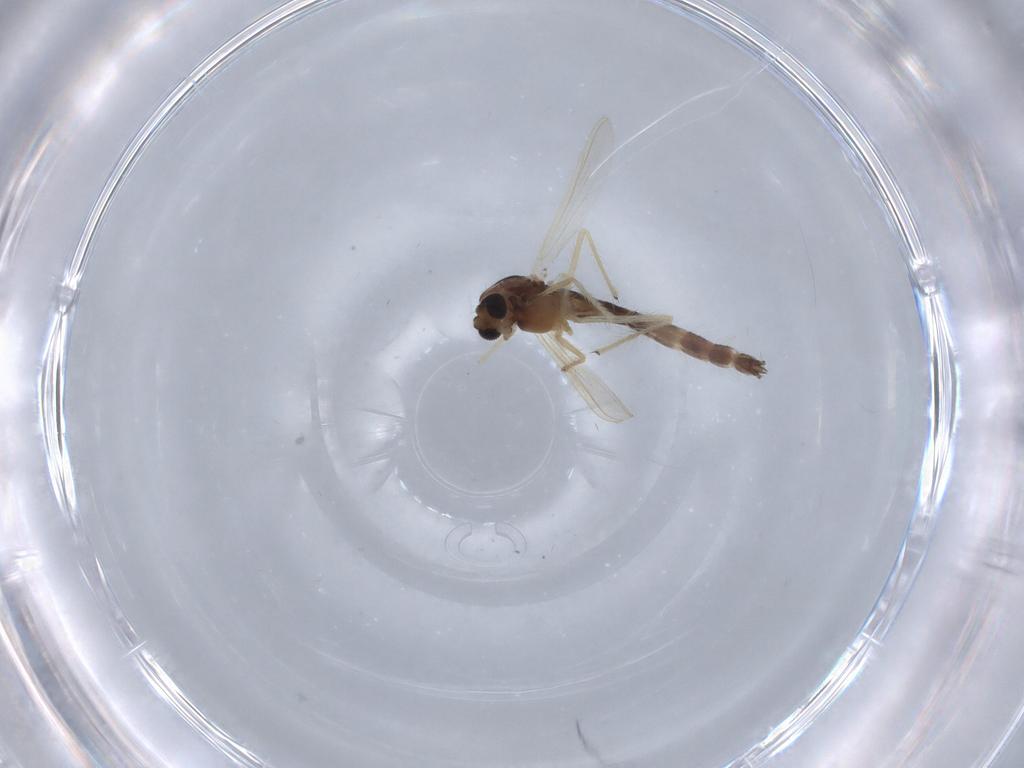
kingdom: Animalia
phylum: Arthropoda
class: Insecta
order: Diptera
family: Chironomidae
